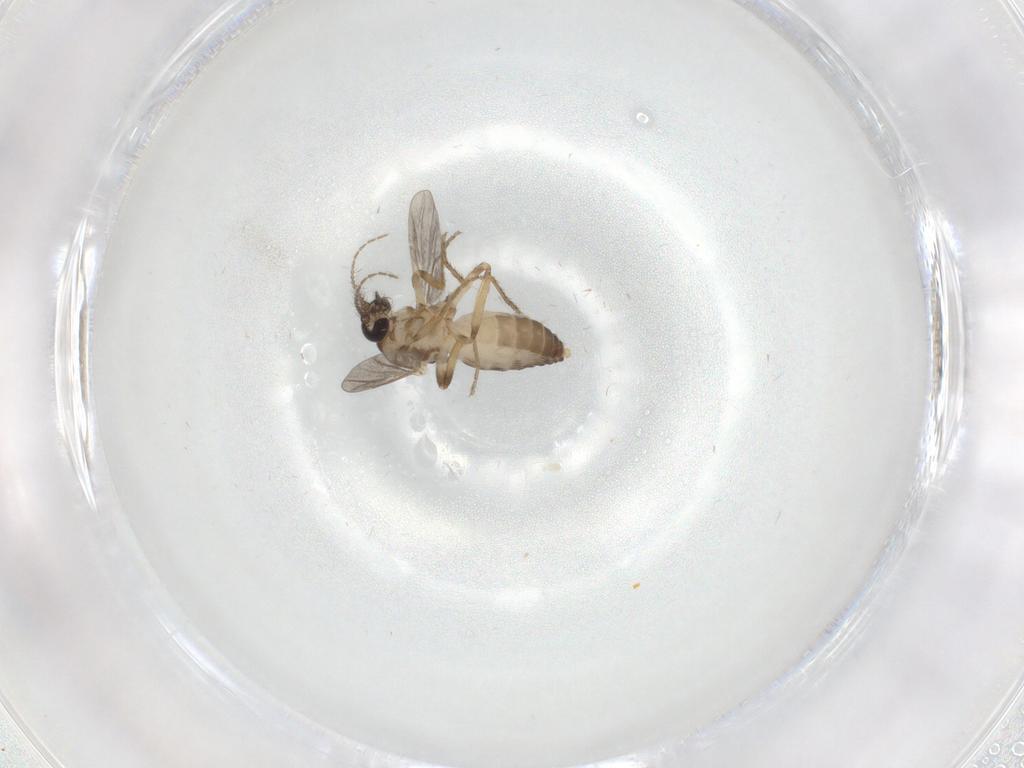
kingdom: Animalia
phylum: Arthropoda
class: Insecta
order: Diptera
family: Ceratopogonidae
